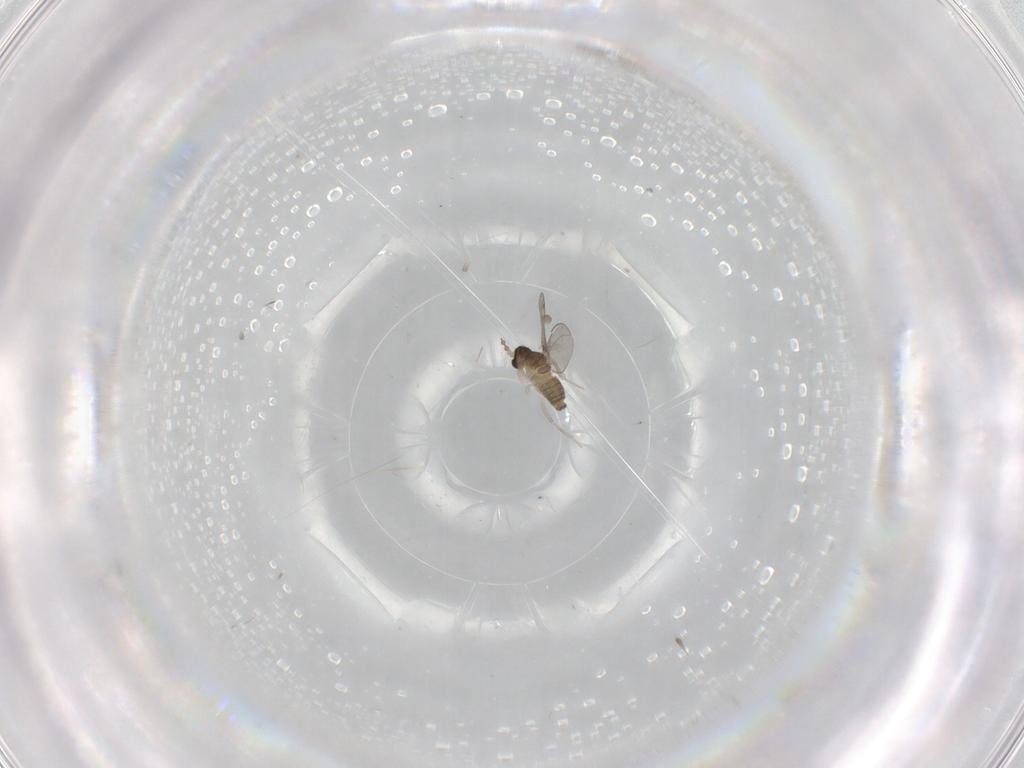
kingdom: Animalia
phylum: Arthropoda
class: Insecta
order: Diptera
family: Cecidomyiidae
